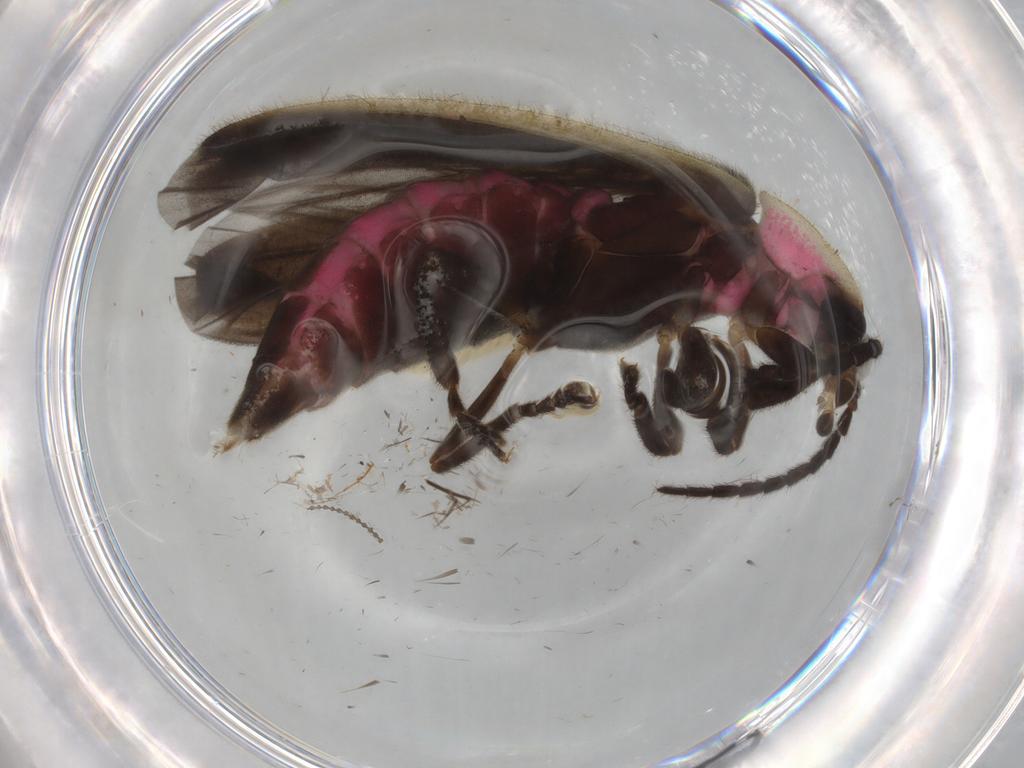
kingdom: Animalia
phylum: Arthropoda
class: Insecta
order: Coleoptera
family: Lampyridae
